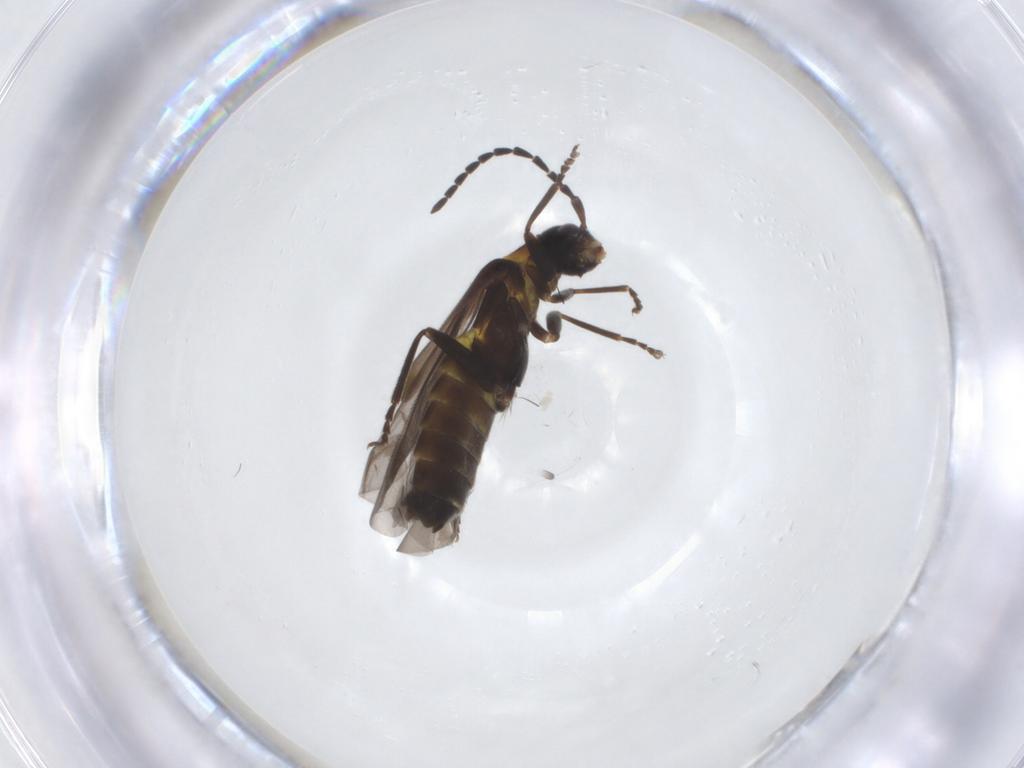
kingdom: Animalia
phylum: Arthropoda
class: Insecta
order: Coleoptera
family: Cantharidae
